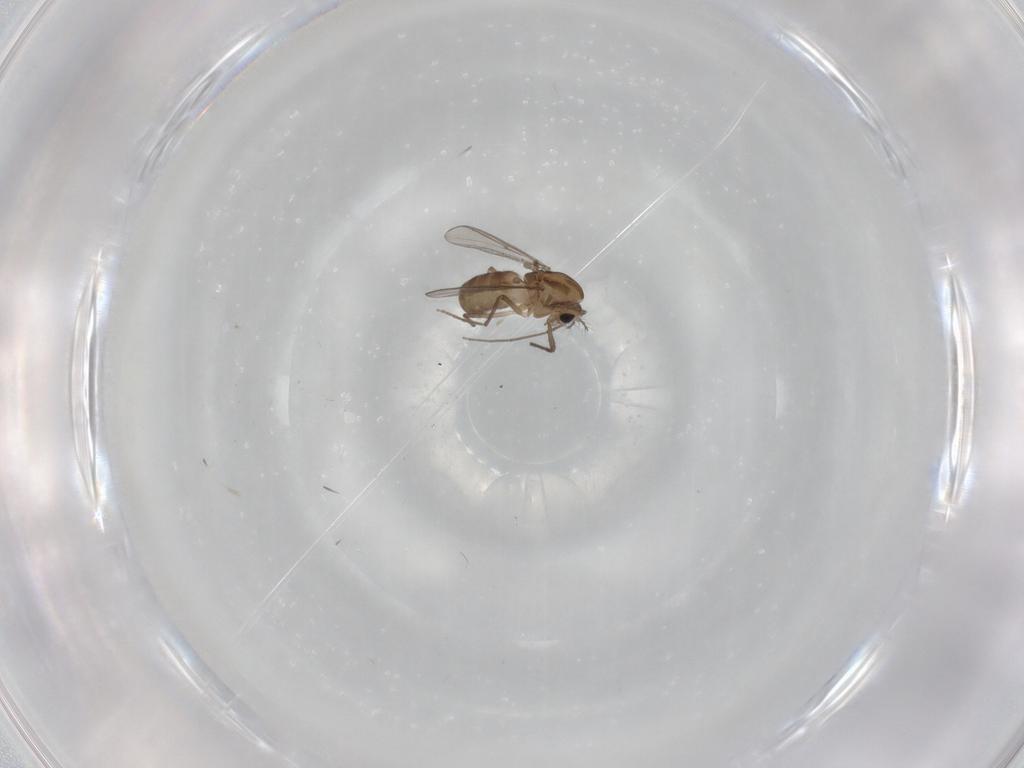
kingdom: Animalia
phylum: Arthropoda
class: Insecta
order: Diptera
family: Chironomidae
